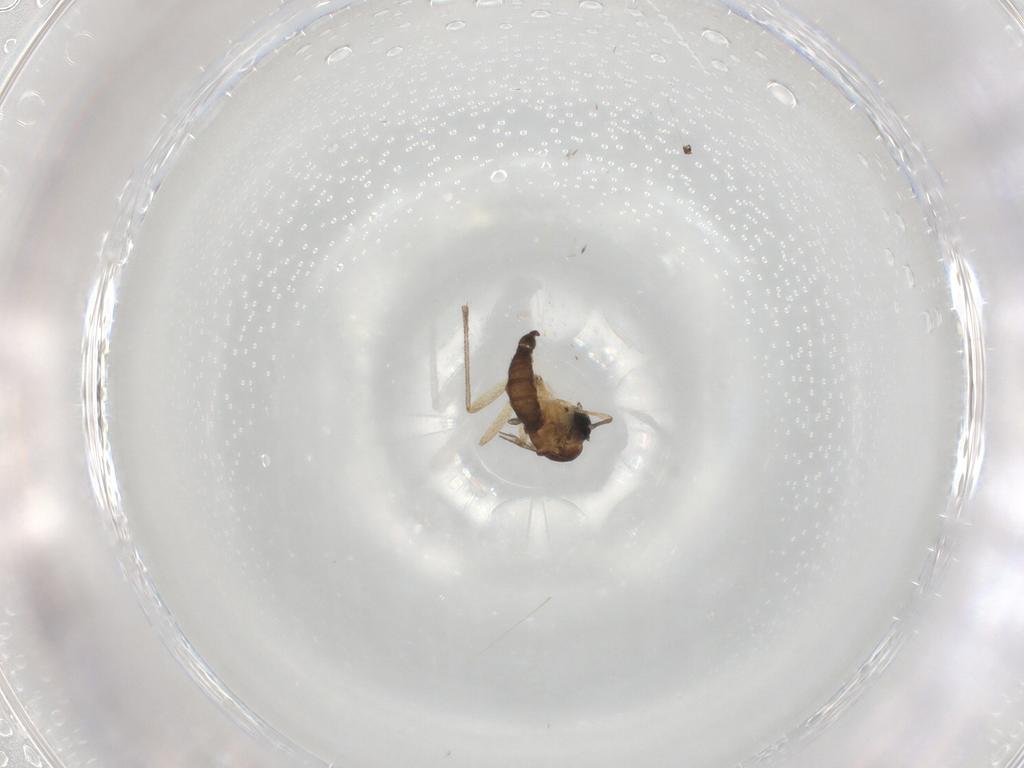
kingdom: Animalia
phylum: Arthropoda
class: Insecta
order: Diptera
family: Sciaridae
